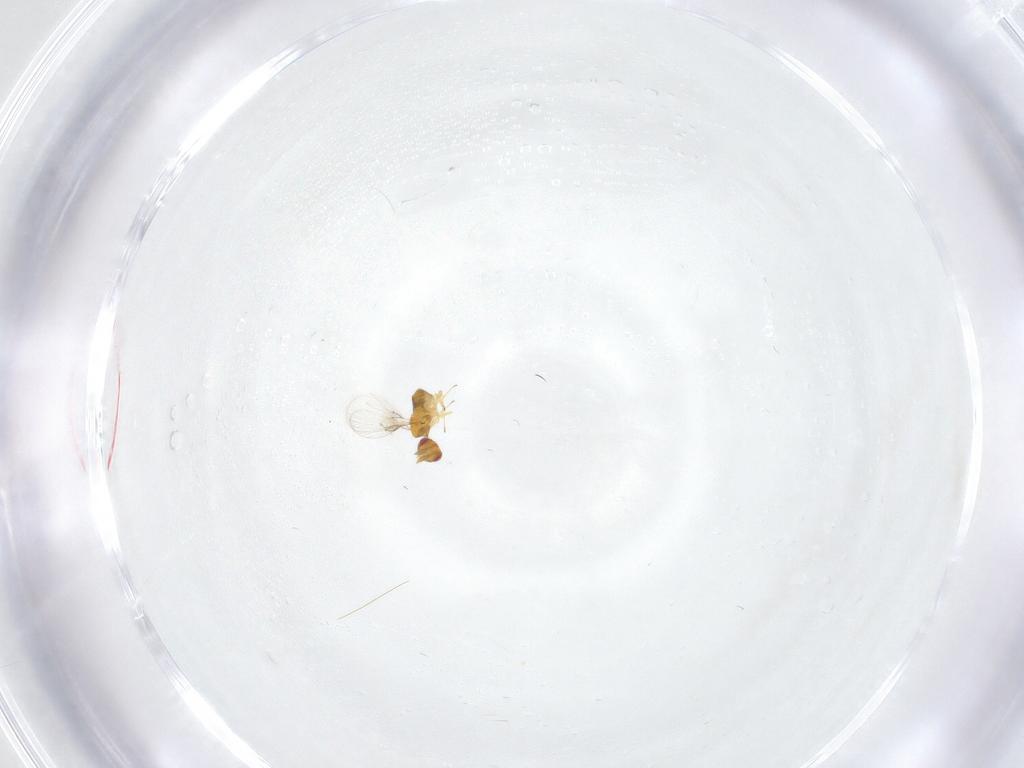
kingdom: Animalia
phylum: Arthropoda
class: Insecta
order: Hymenoptera
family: Trichogrammatidae
